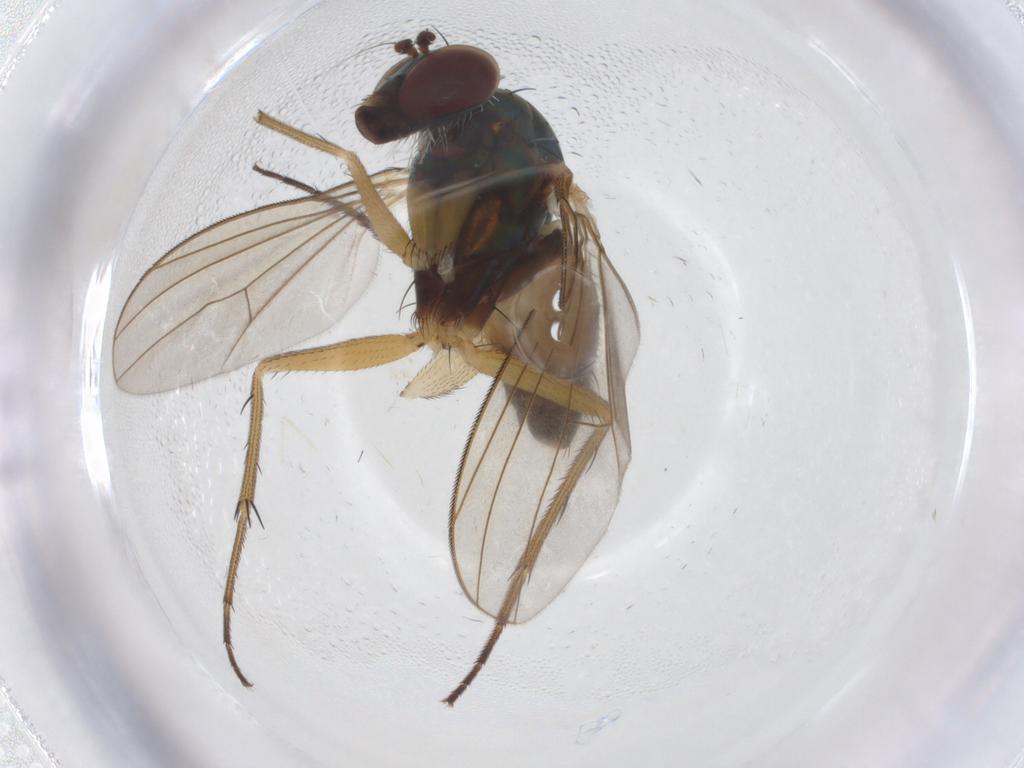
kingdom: Animalia
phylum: Arthropoda
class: Insecta
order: Diptera
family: Dolichopodidae
